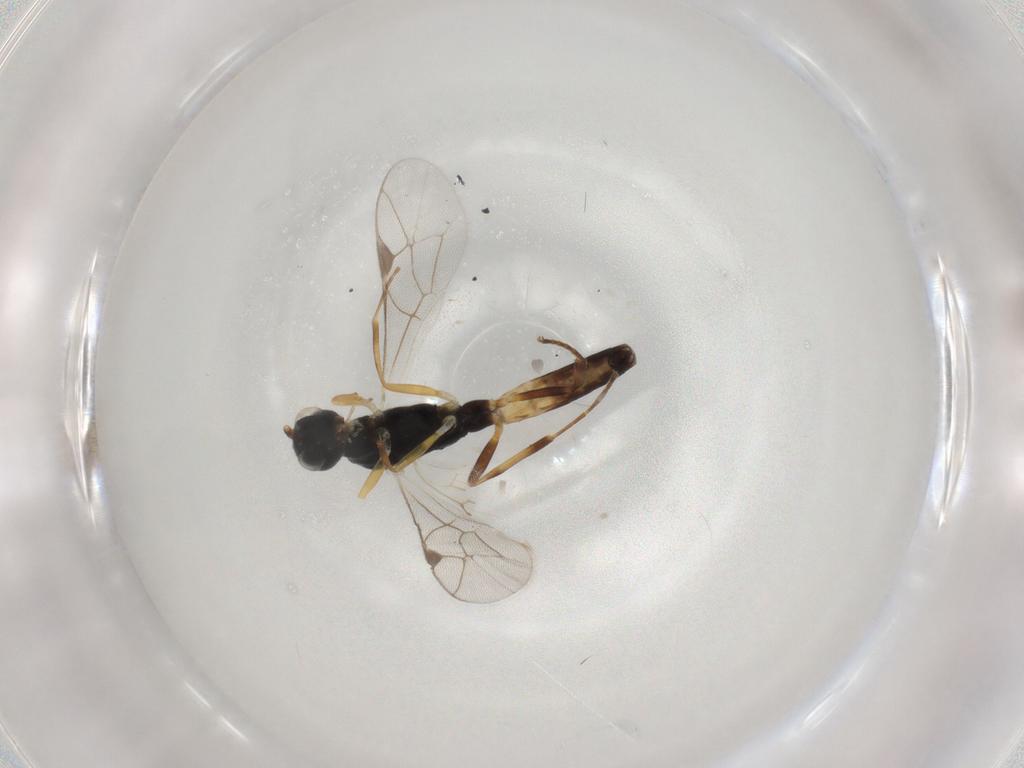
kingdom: Animalia
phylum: Arthropoda
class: Insecta
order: Hymenoptera
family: Ichneumonidae
